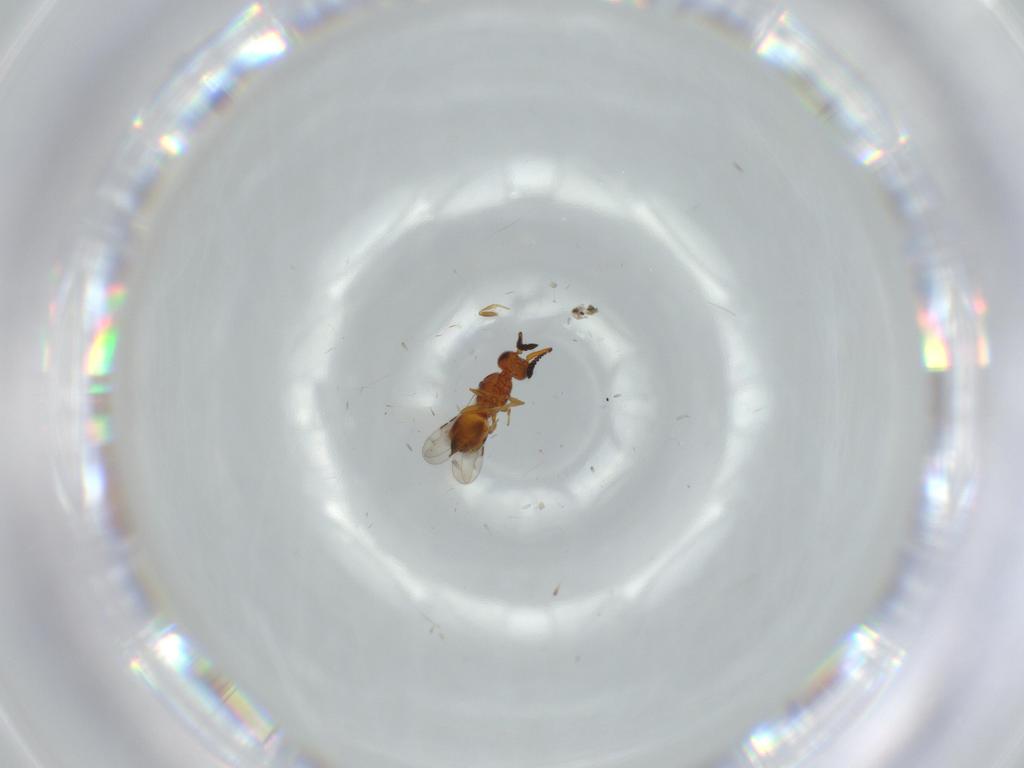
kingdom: Animalia
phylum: Arthropoda
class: Insecta
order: Hymenoptera
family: Ceraphronidae
